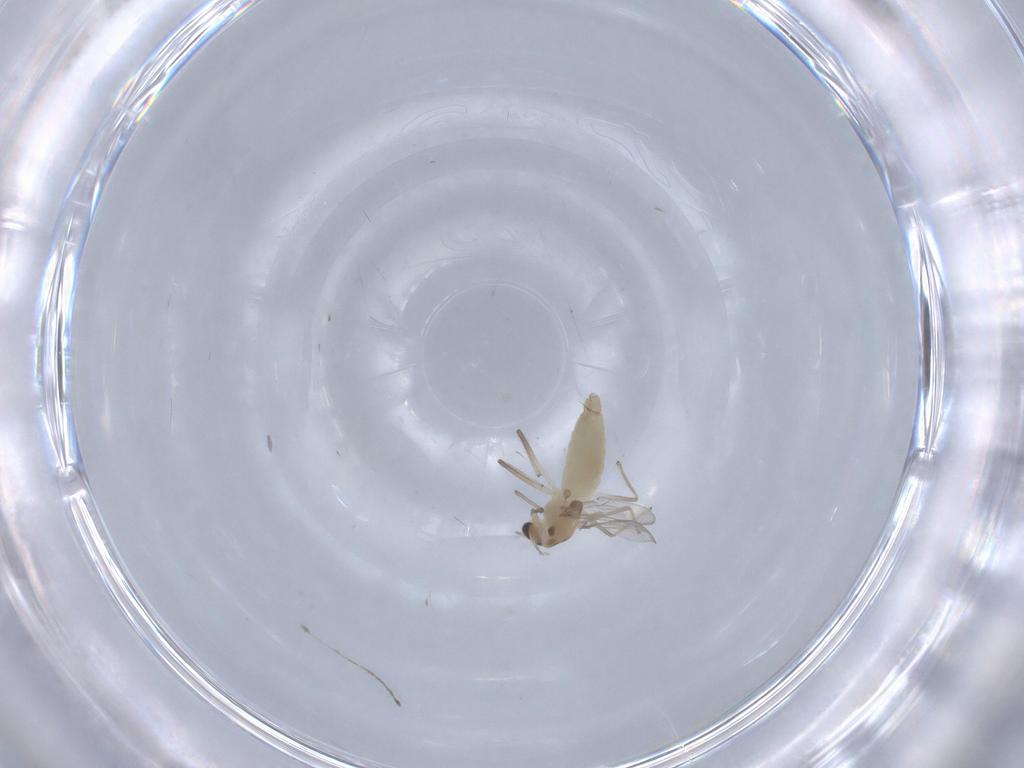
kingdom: Animalia
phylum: Arthropoda
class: Insecta
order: Diptera
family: Chironomidae
